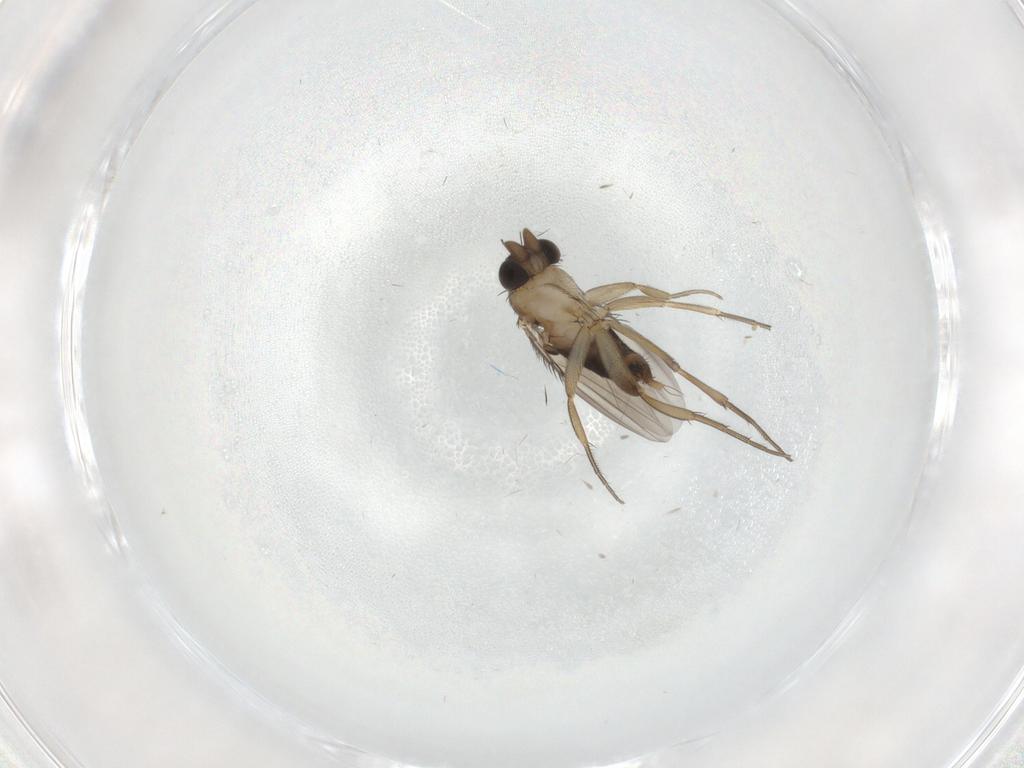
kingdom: Animalia
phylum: Arthropoda
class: Insecta
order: Diptera
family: Phoridae
